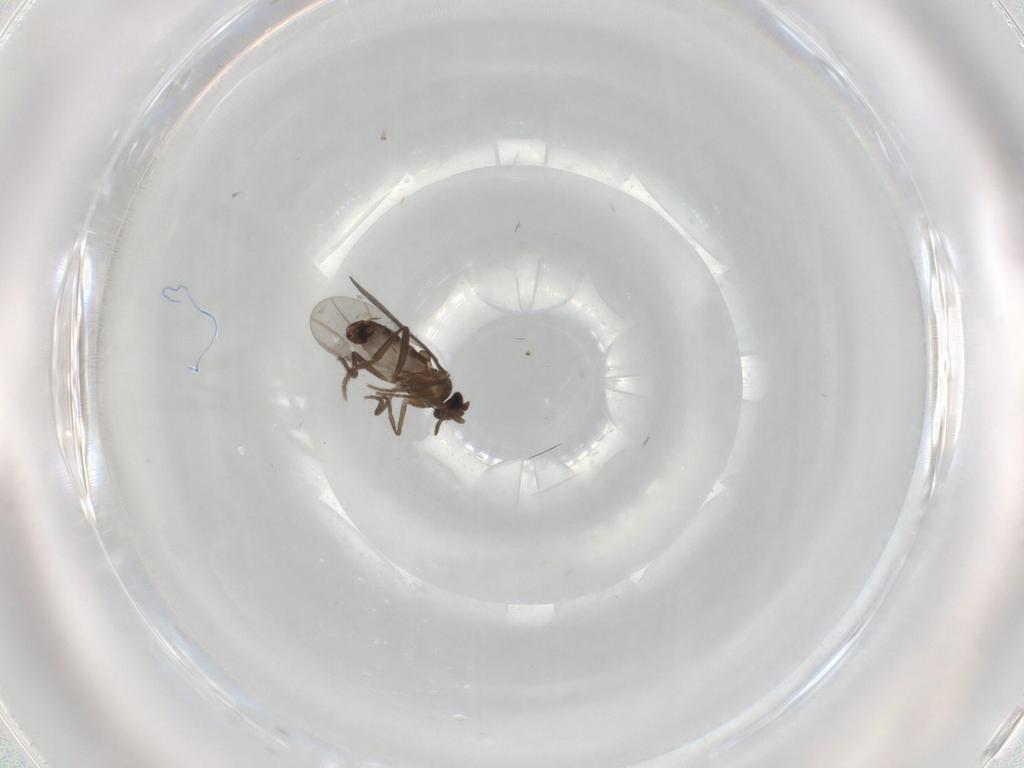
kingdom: Animalia
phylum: Arthropoda
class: Insecta
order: Diptera
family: Phoridae
